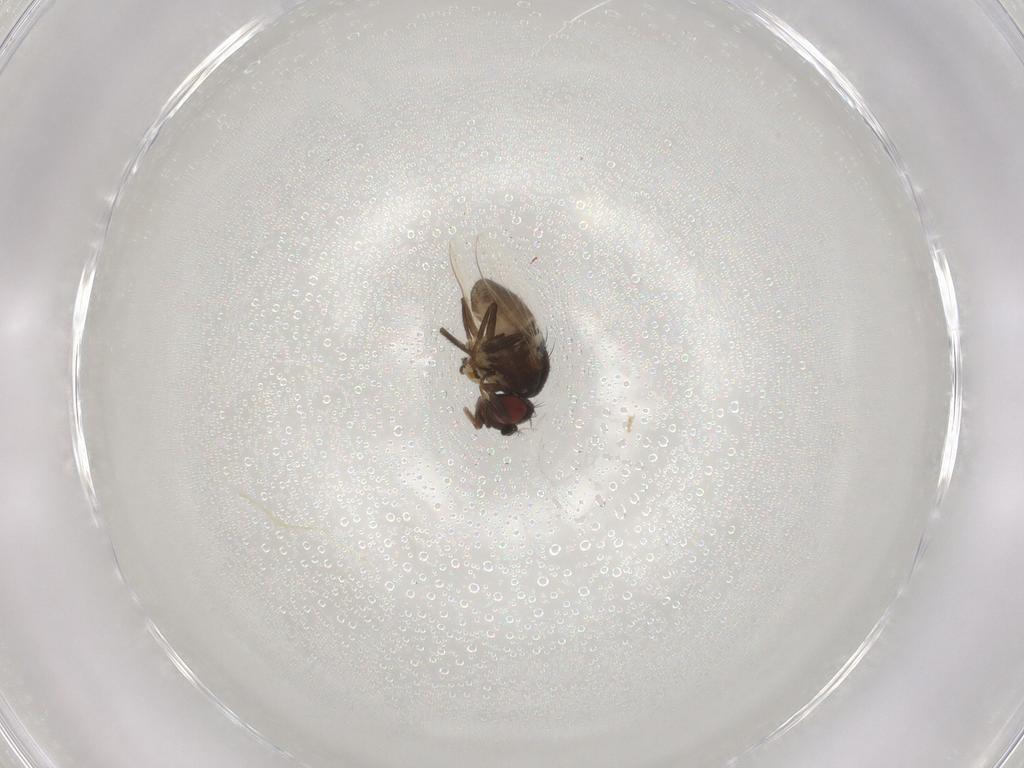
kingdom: Animalia
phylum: Arthropoda
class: Insecta
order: Diptera
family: Ephydridae
